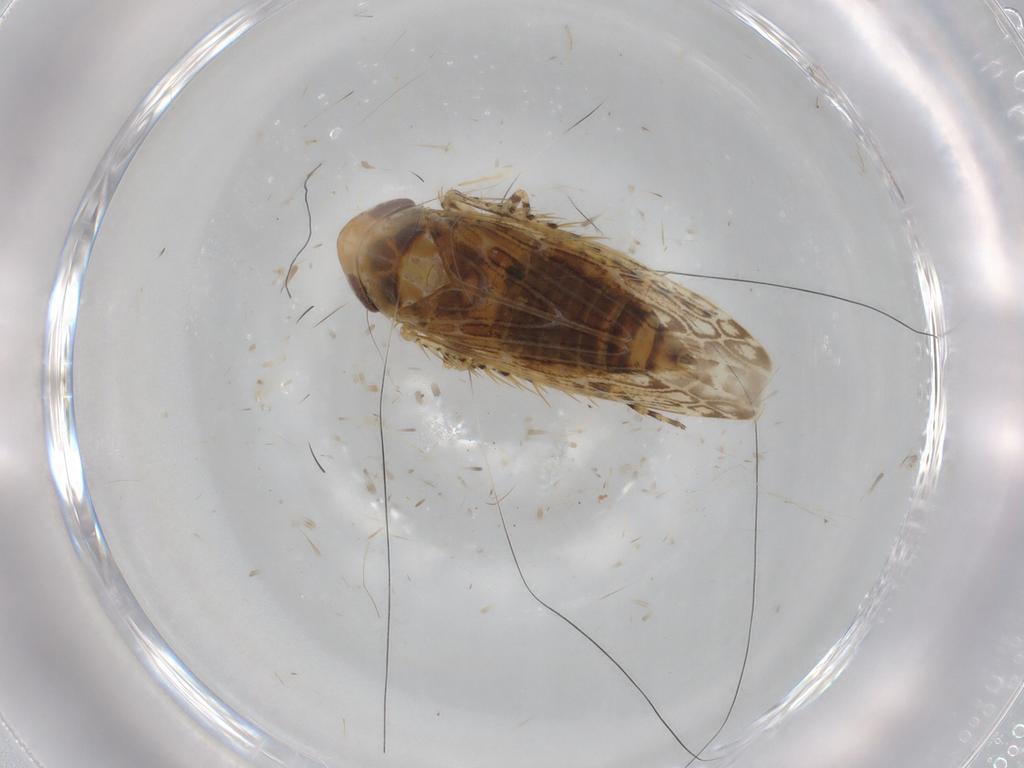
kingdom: Animalia
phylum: Arthropoda
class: Insecta
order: Hemiptera
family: Cicadellidae
